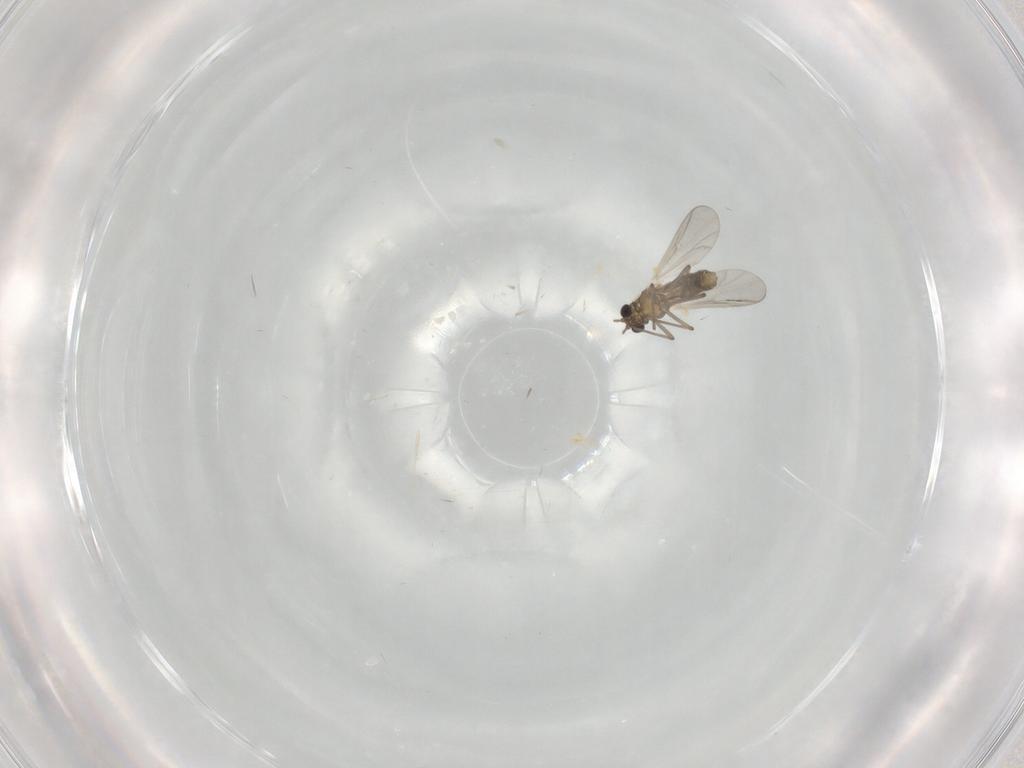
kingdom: Animalia
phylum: Arthropoda
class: Insecta
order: Diptera
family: Chironomidae
